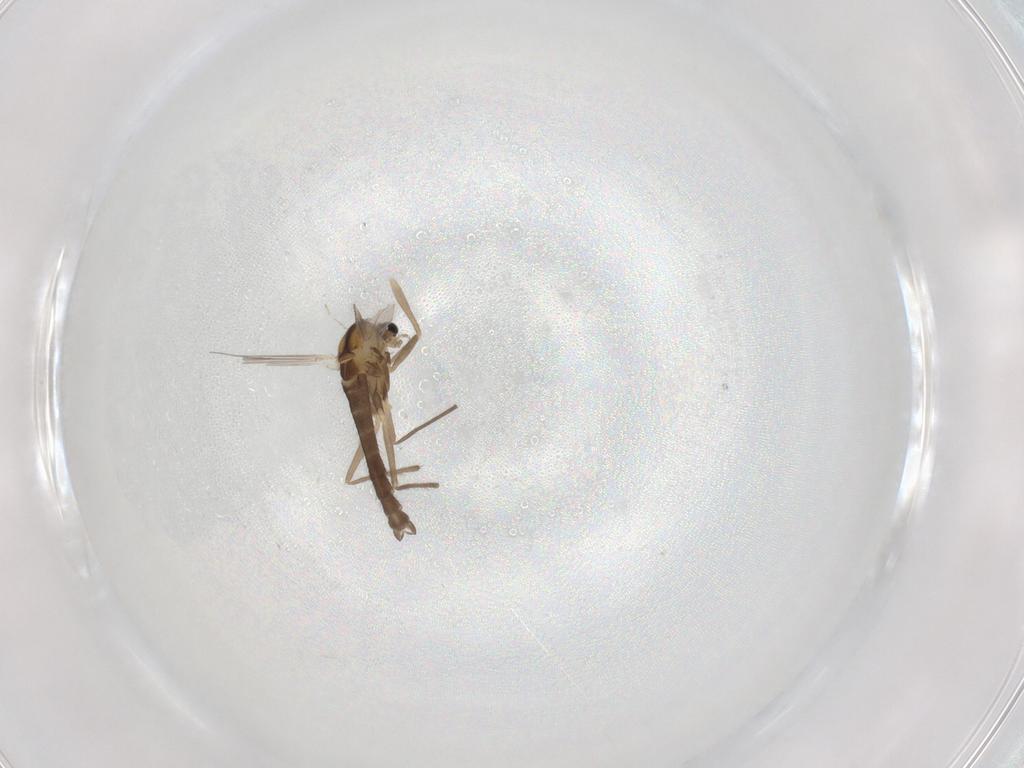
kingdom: Animalia
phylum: Arthropoda
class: Insecta
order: Diptera
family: Chironomidae
